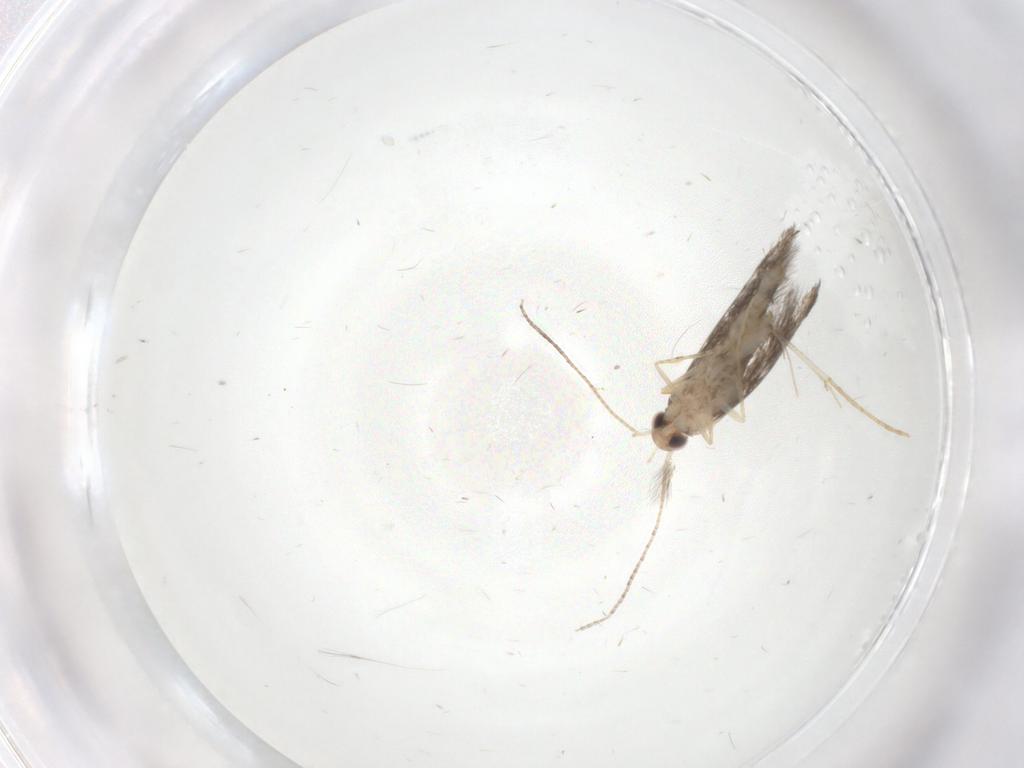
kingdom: Animalia
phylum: Arthropoda
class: Insecta
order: Lepidoptera
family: Gracillariidae
